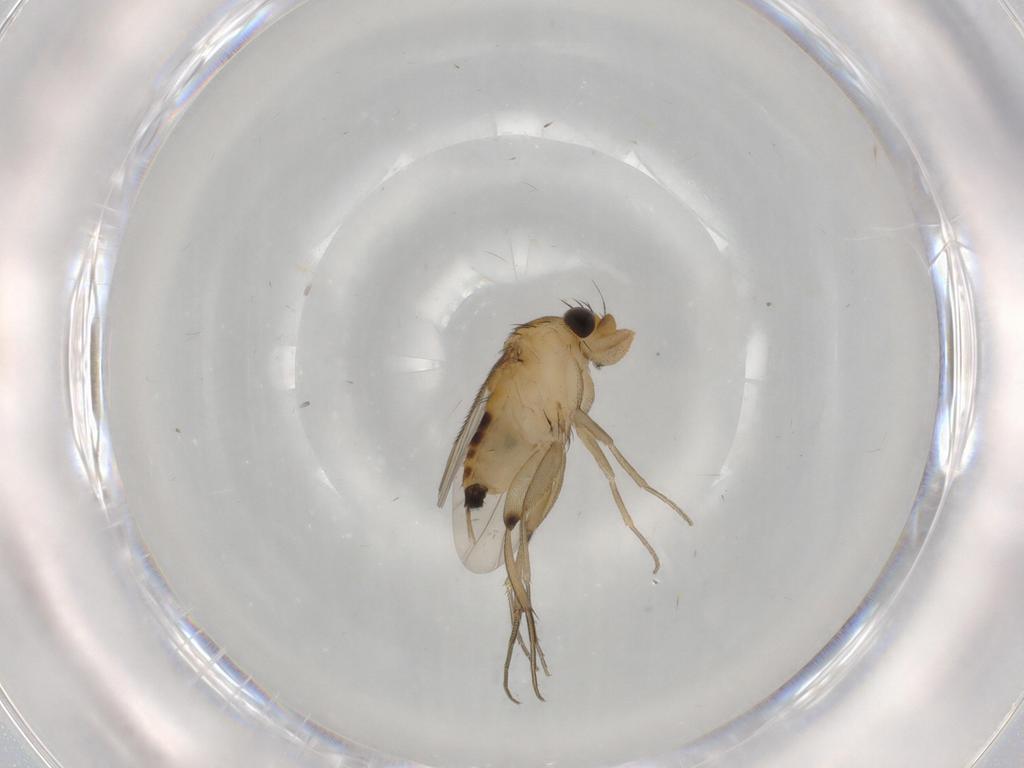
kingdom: Animalia
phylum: Arthropoda
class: Insecta
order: Diptera
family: Phoridae
